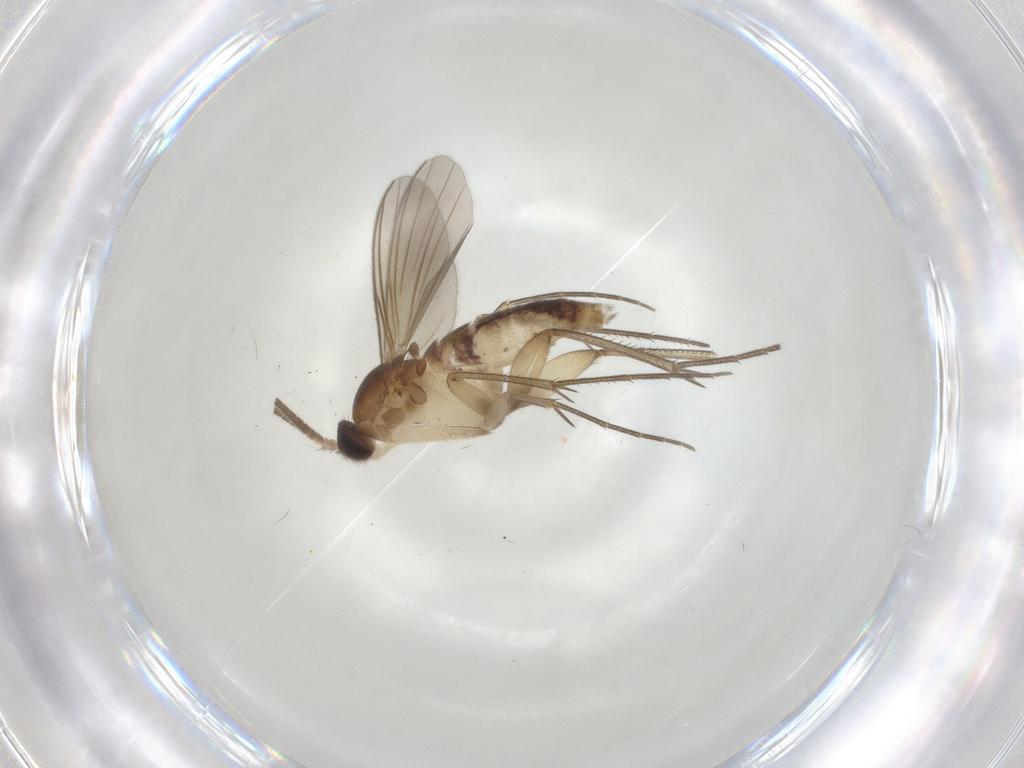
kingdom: Animalia
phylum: Arthropoda
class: Insecta
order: Diptera
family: Mycetophilidae
